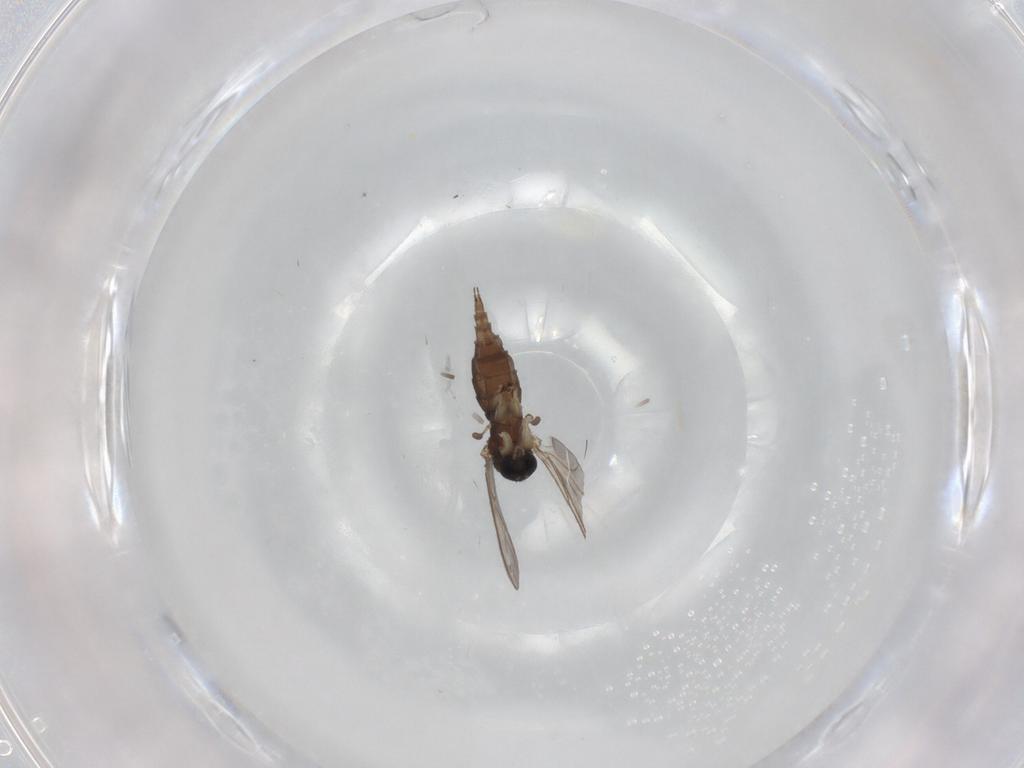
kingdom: Animalia
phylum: Arthropoda
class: Insecta
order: Diptera
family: Sciaridae
